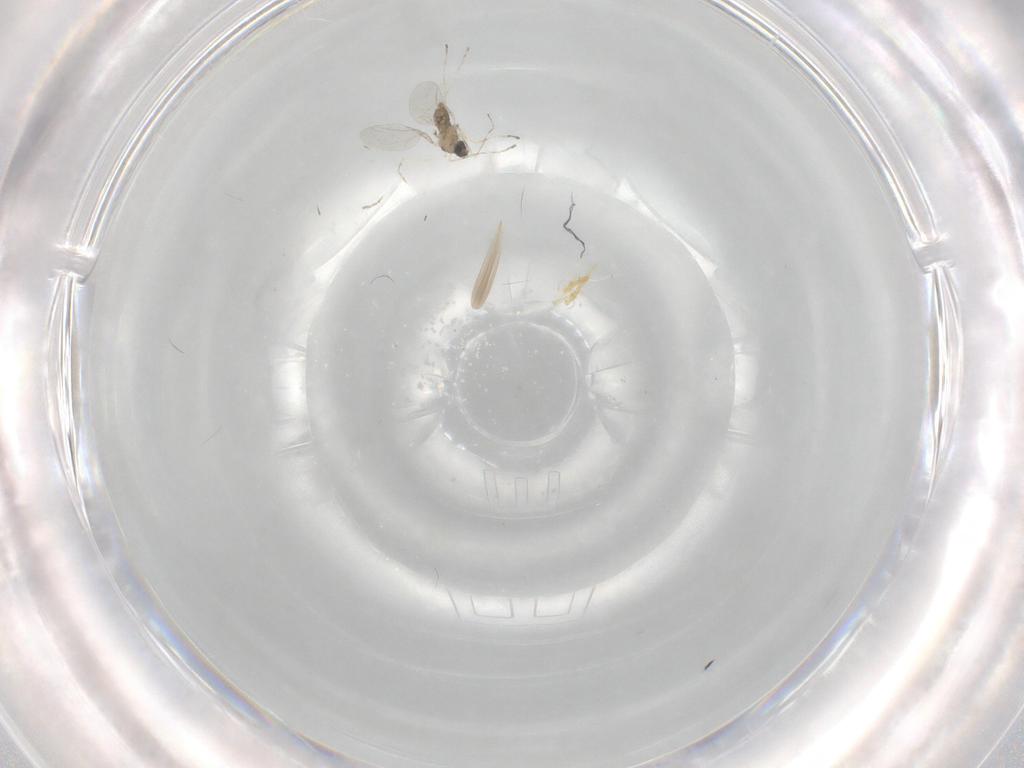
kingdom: Animalia
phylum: Arthropoda
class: Insecta
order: Diptera
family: Cecidomyiidae
